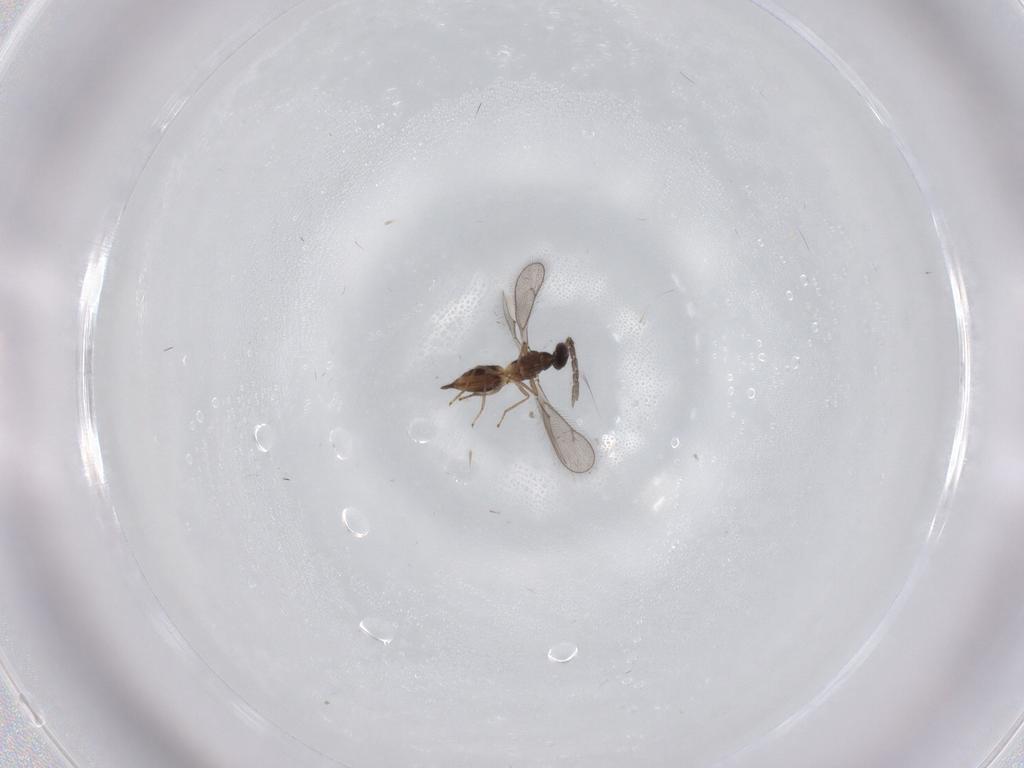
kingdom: Animalia
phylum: Arthropoda
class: Insecta
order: Hymenoptera
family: Eulophidae
